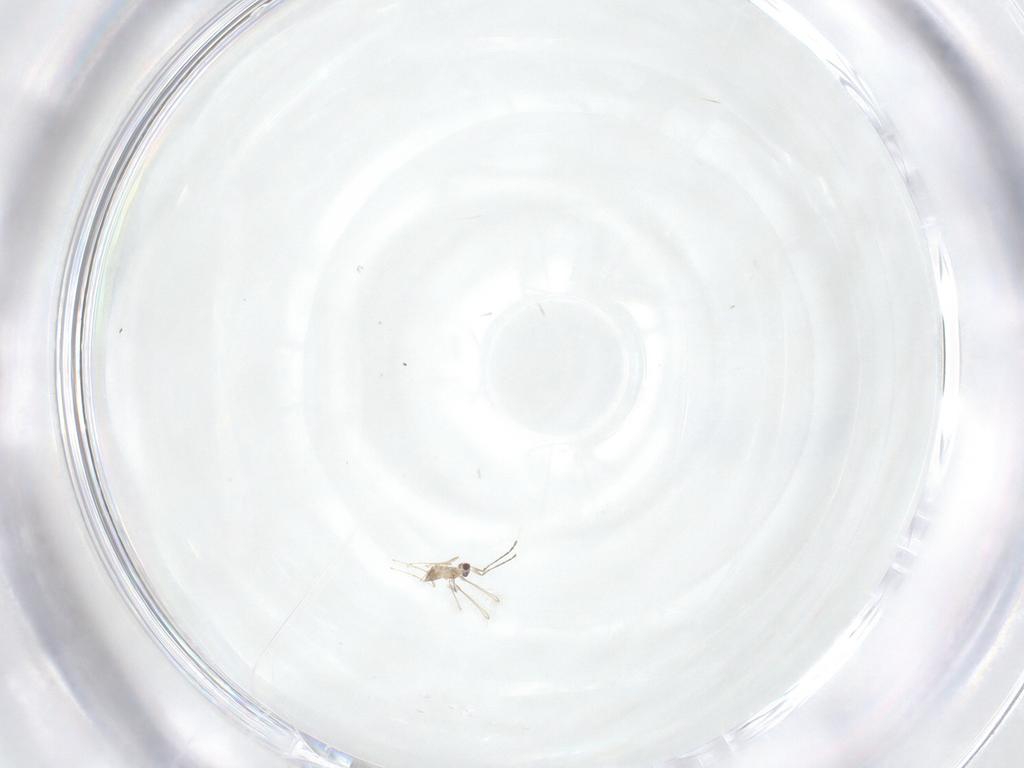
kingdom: Animalia
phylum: Arthropoda
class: Insecta
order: Hymenoptera
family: Mymaridae
